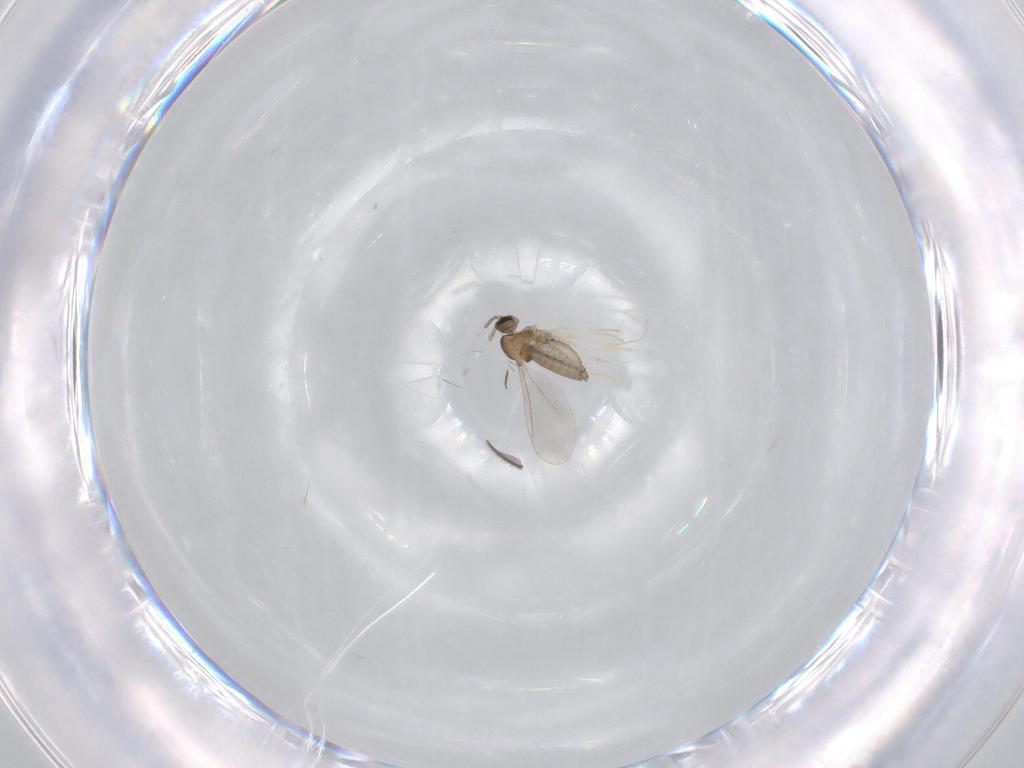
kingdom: Animalia
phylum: Arthropoda
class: Insecta
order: Diptera
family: Cecidomyiidae
